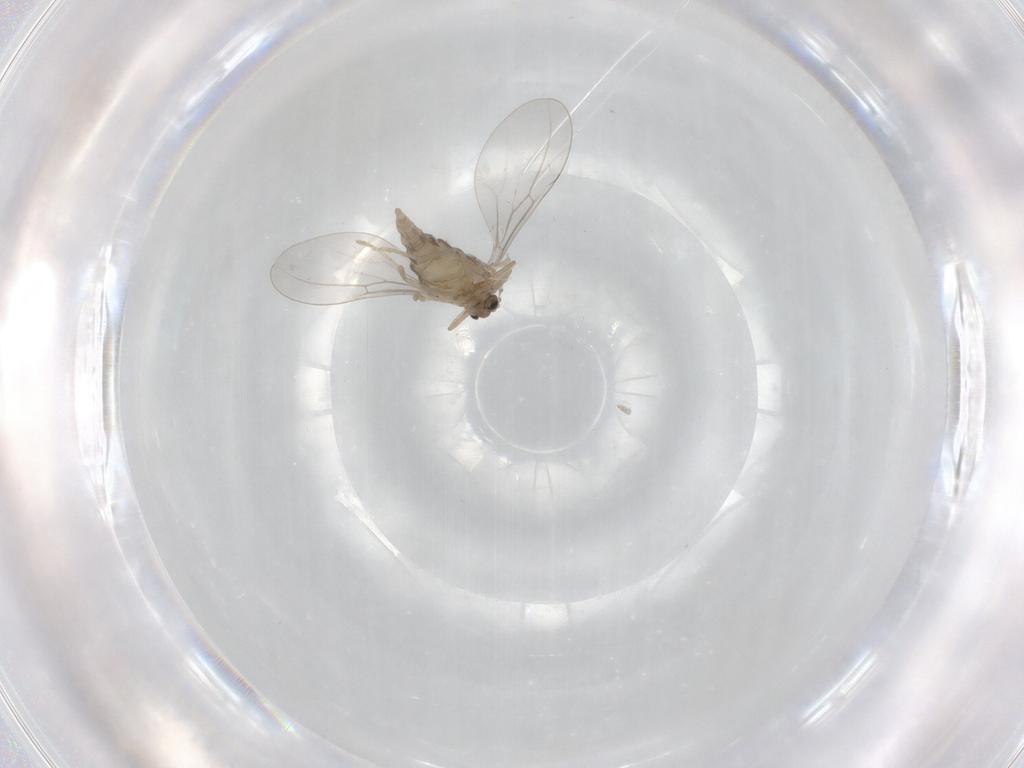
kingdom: Animalia
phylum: Arthropoda
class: Insecta
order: Diptera
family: Cecidomyiidae
